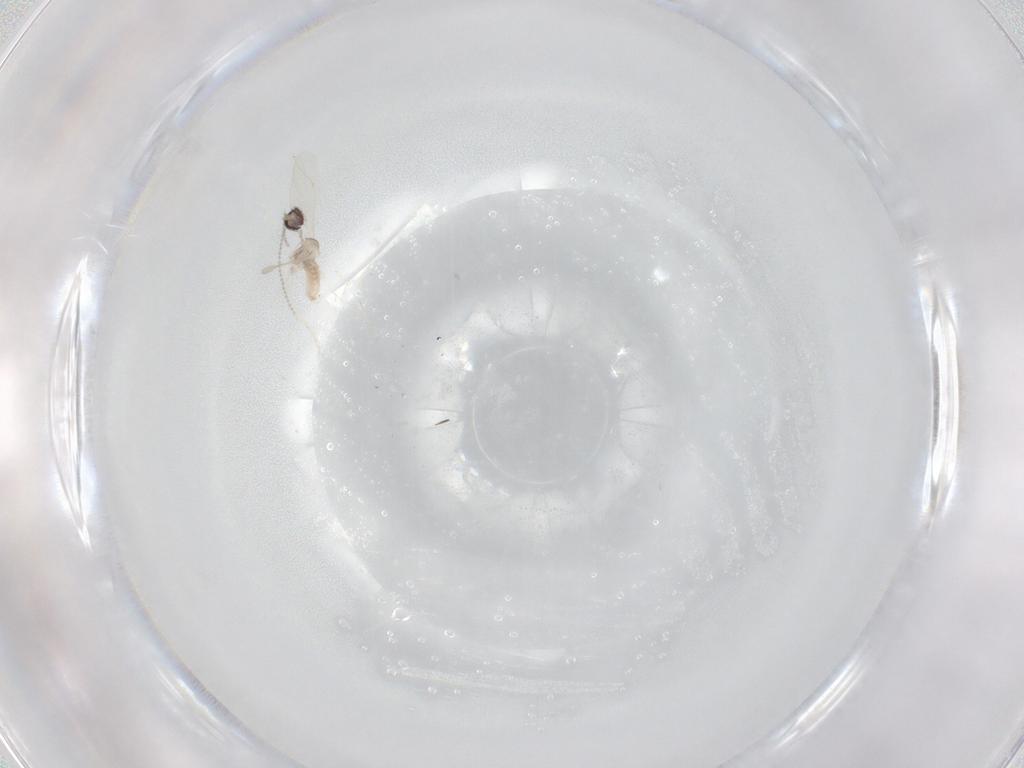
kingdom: Animalia
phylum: Arthropoda
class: Insecta
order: Diptera
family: Cecidomyiidae
